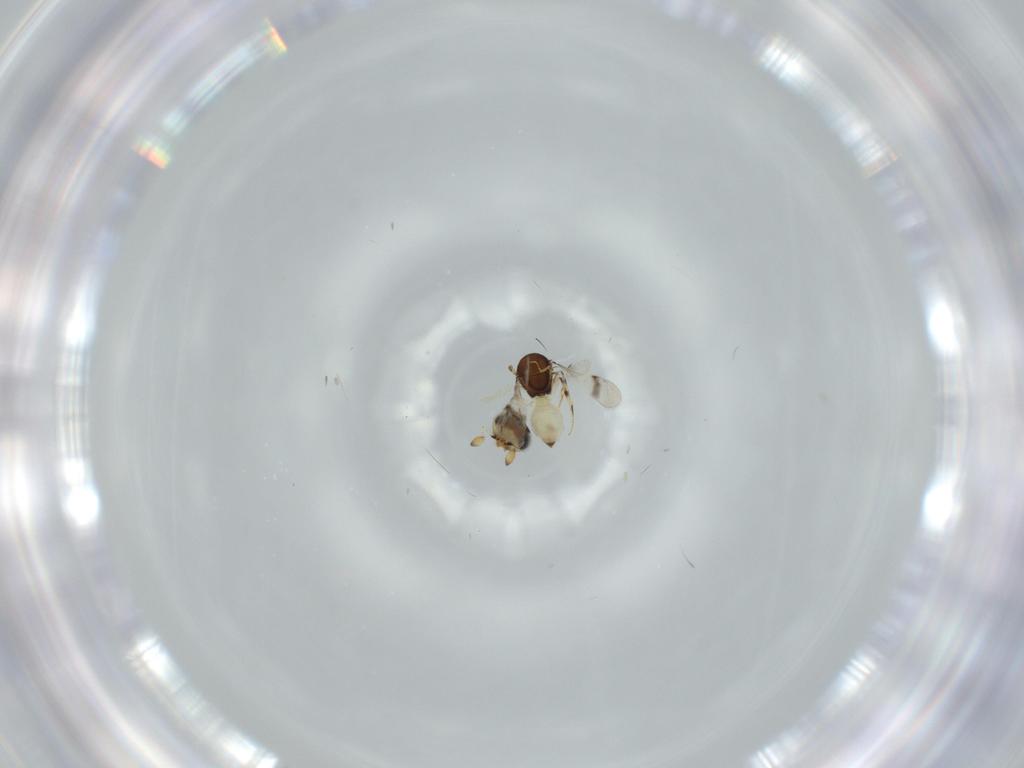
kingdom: Animalia
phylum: Arthropoda
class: Insecta
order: Hymenoptera
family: Scelionidae
